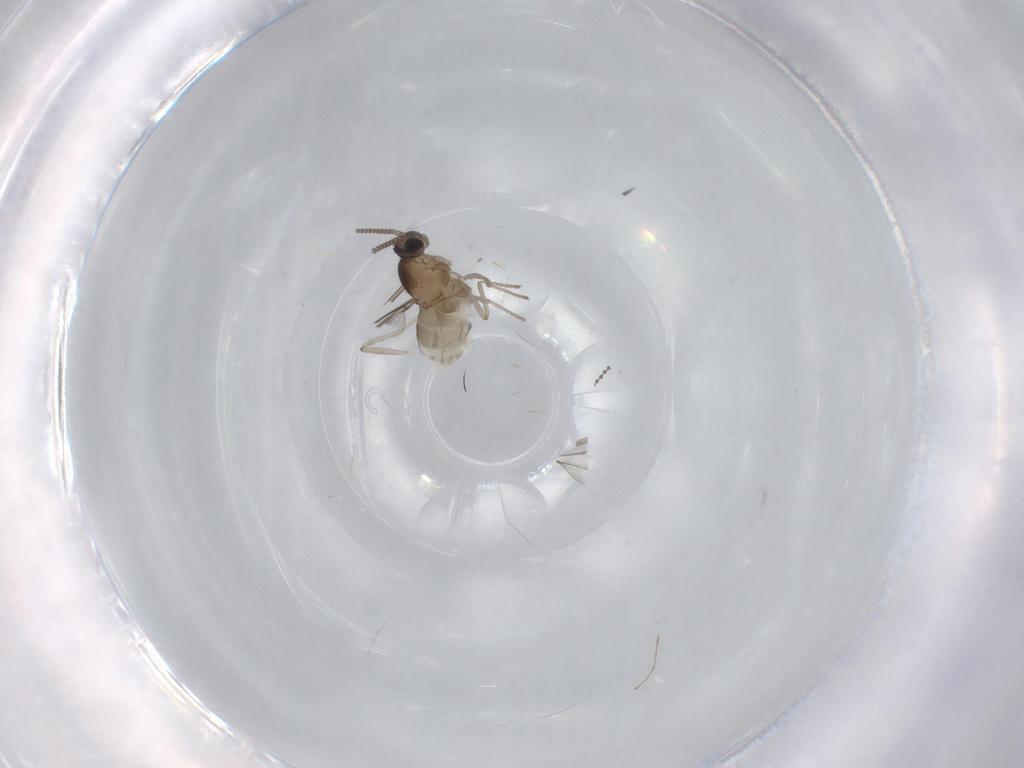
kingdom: Animalia
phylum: Arthropoda
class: Insecta
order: Diptera
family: Cecidomyiidae
